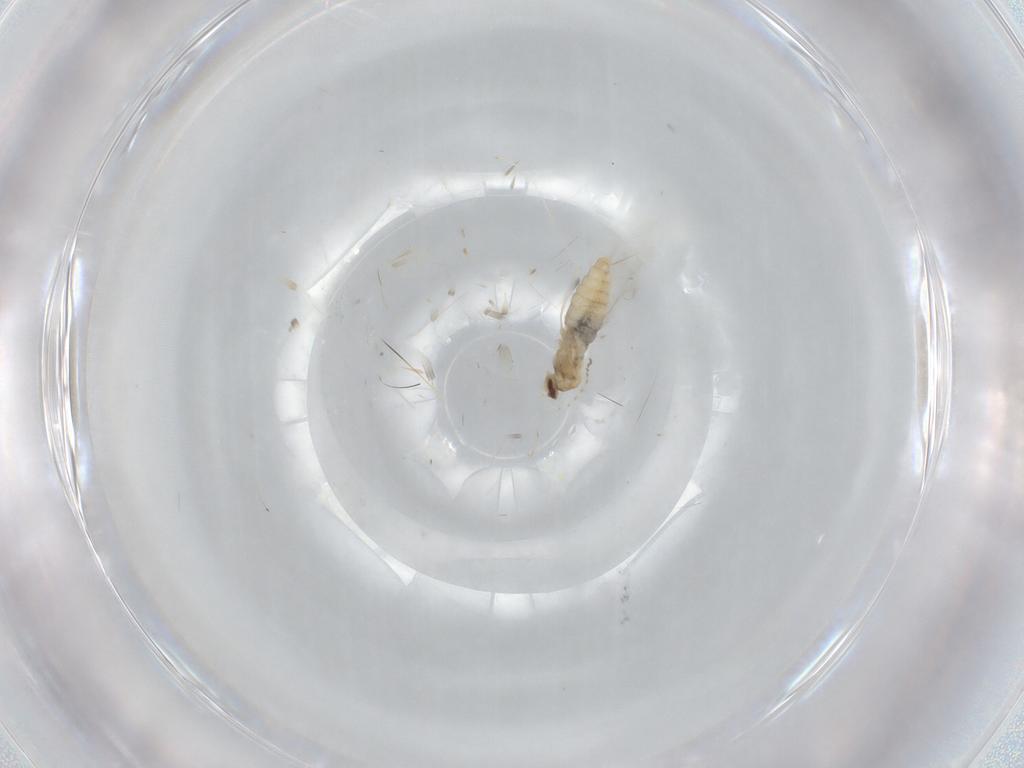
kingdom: Animalia
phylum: Arthropoda
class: Insecta
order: Diptera
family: Cecidomyiidae
